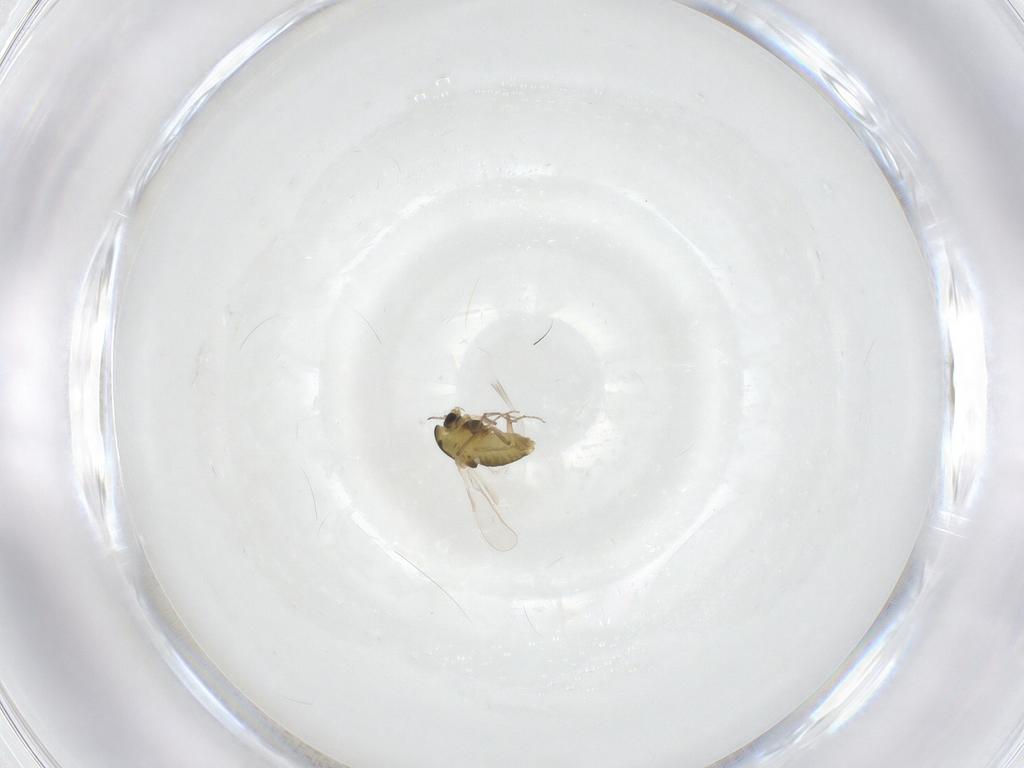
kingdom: Animalia
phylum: Arthropoda
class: Insecta
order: Diptera
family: Chironomidae
